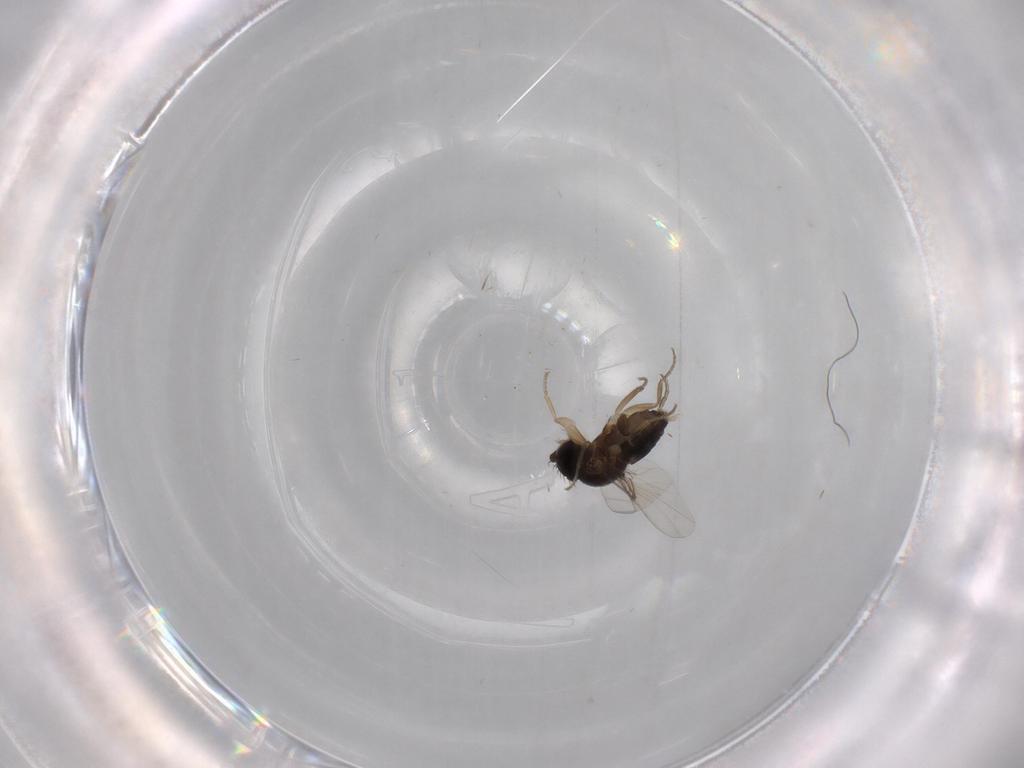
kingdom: Animalia
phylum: Arthropoda
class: Insecta
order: Diptera
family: Phoridae
